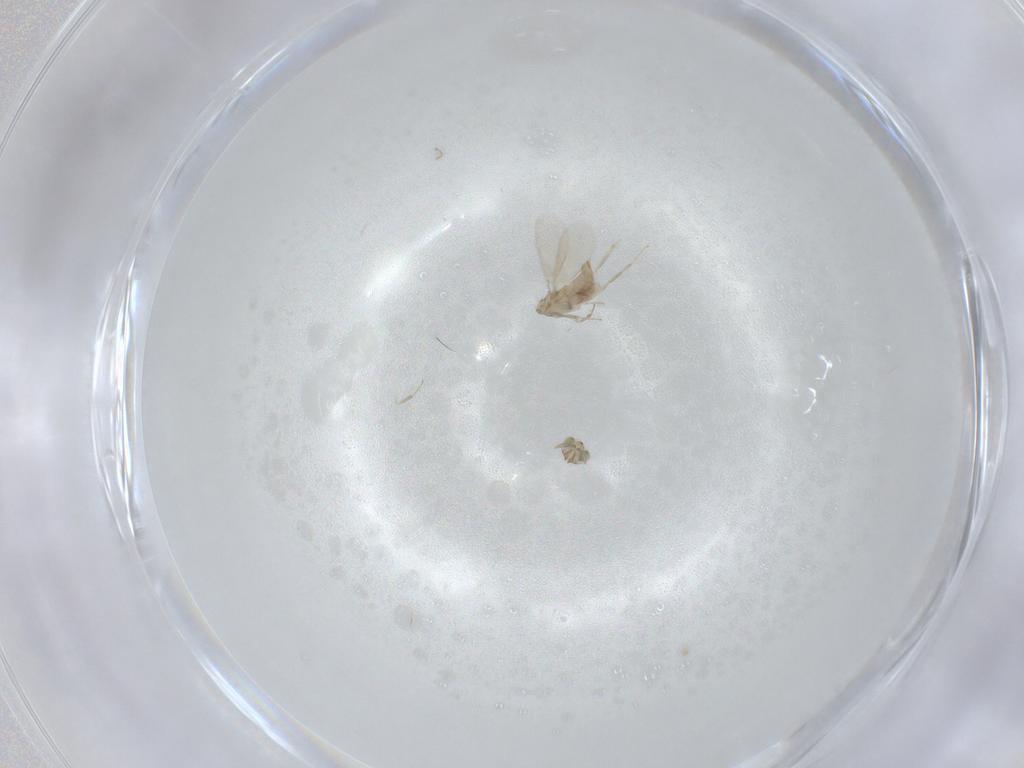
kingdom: Animalia
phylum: Arthropoda
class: Insecta
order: Hymenoptera
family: Aphelinidae
